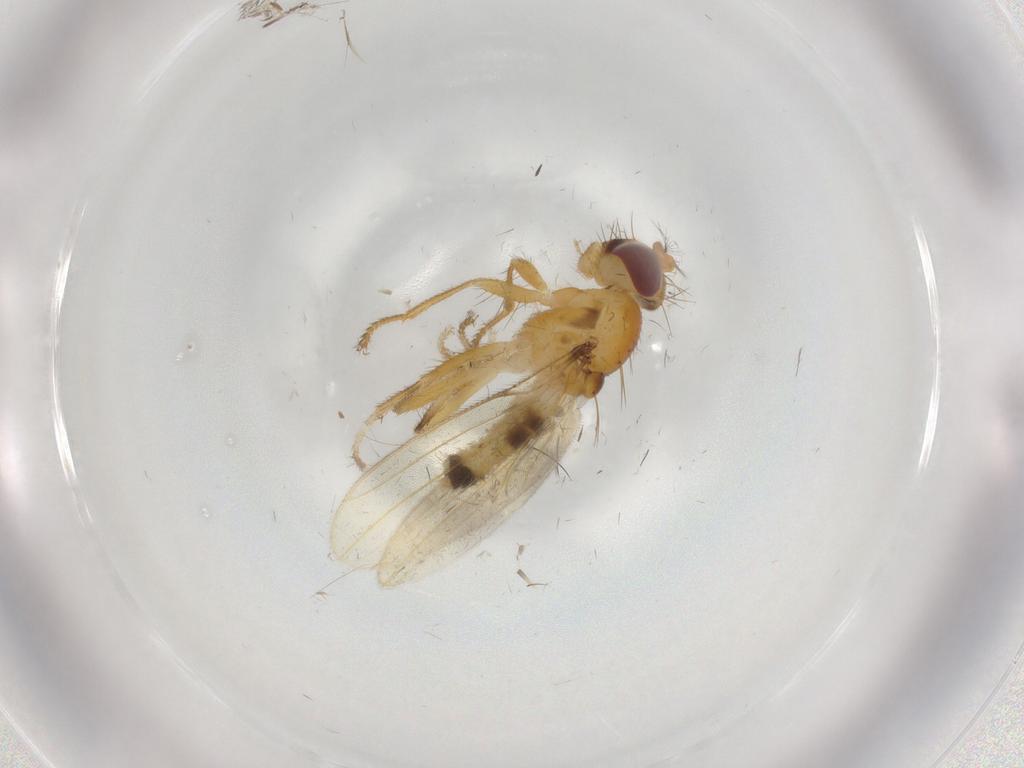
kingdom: Animalia
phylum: Arthropoda
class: Insecta
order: Diptera
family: Periscelididae
